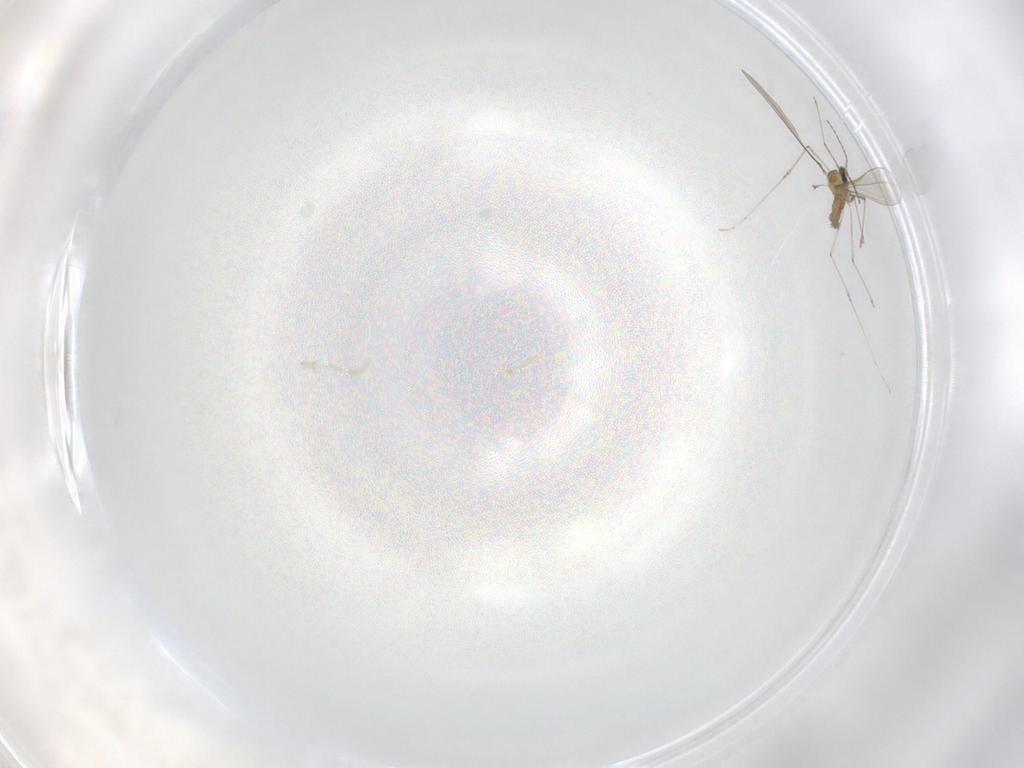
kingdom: Animalia
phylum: Arthropoda
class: Insecta
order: Diptera
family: Cecidomyiidae
